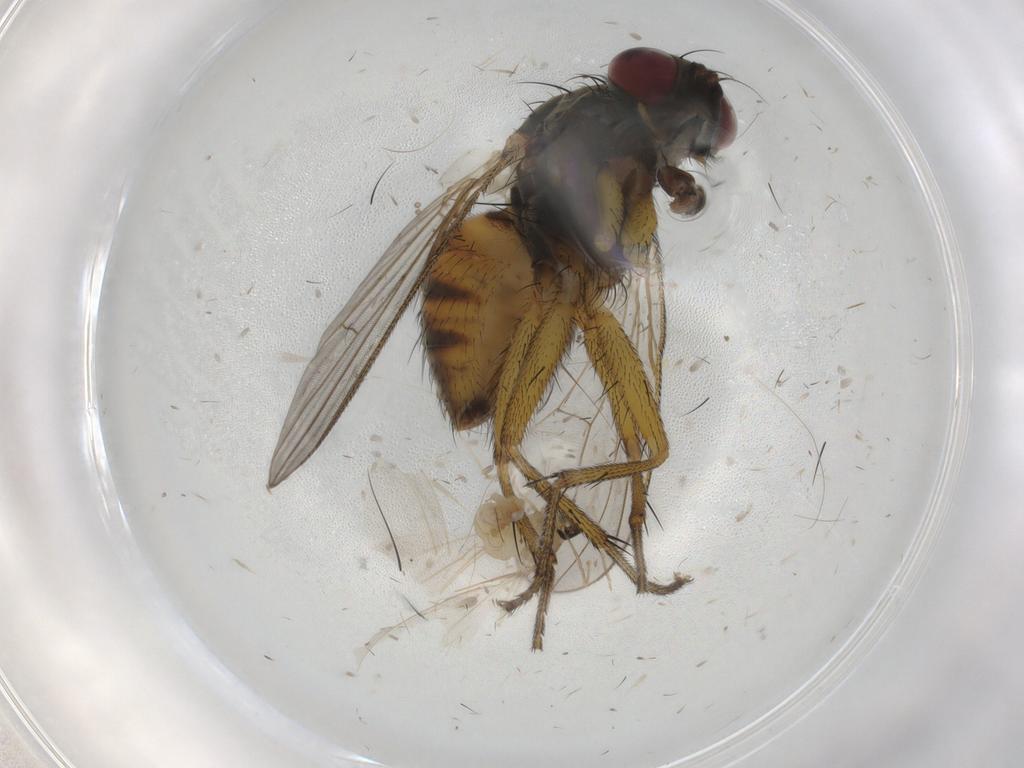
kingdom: Animalia
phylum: Arthropoda
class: Insecta
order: Diptera
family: Muscidae
